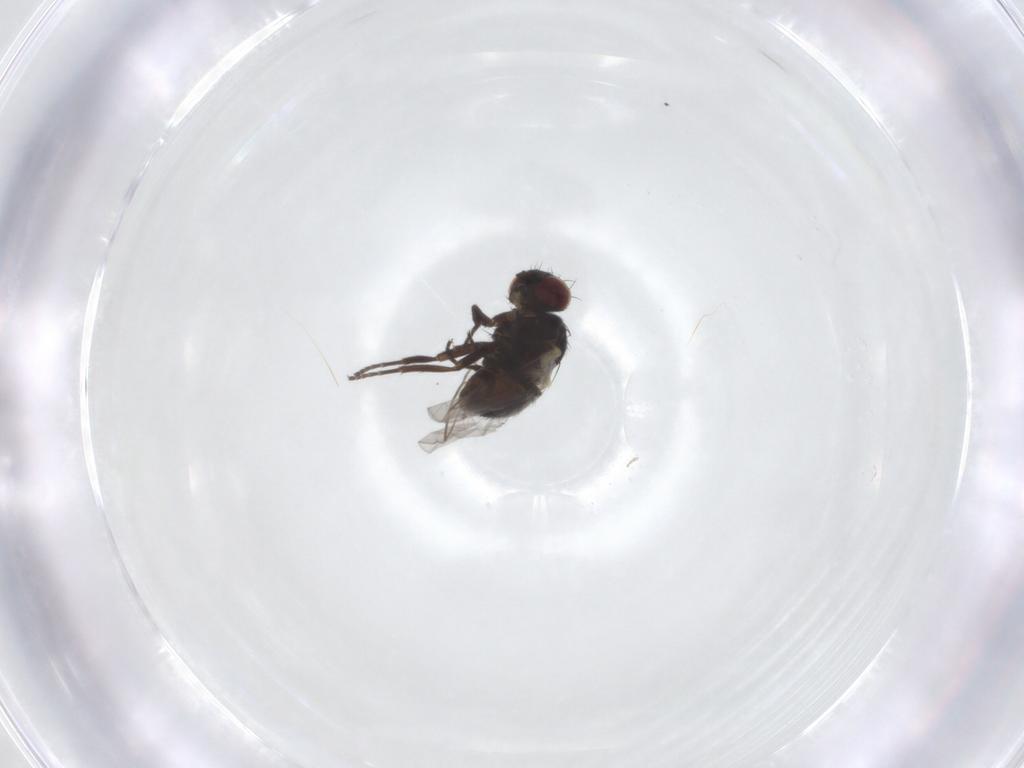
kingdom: Animalia
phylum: Arthropoda
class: Insecta
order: Diptera
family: Agromyzidae
